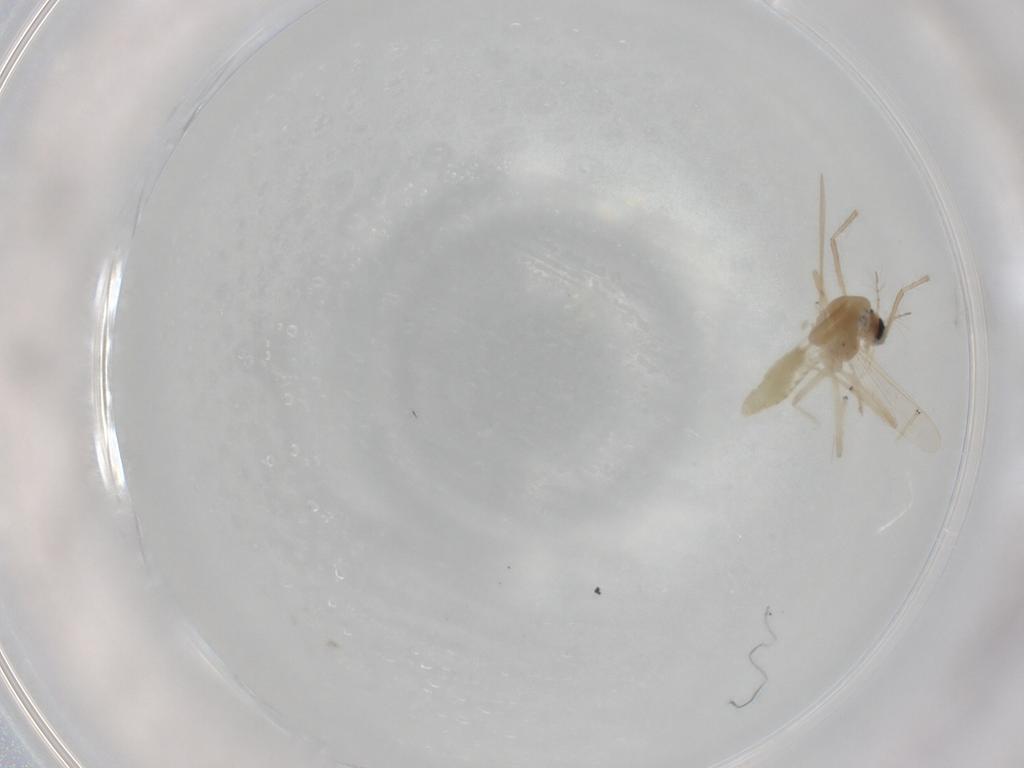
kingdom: Animalia
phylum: Arthropoda
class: Insecta
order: Diptera
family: Chironomidae
